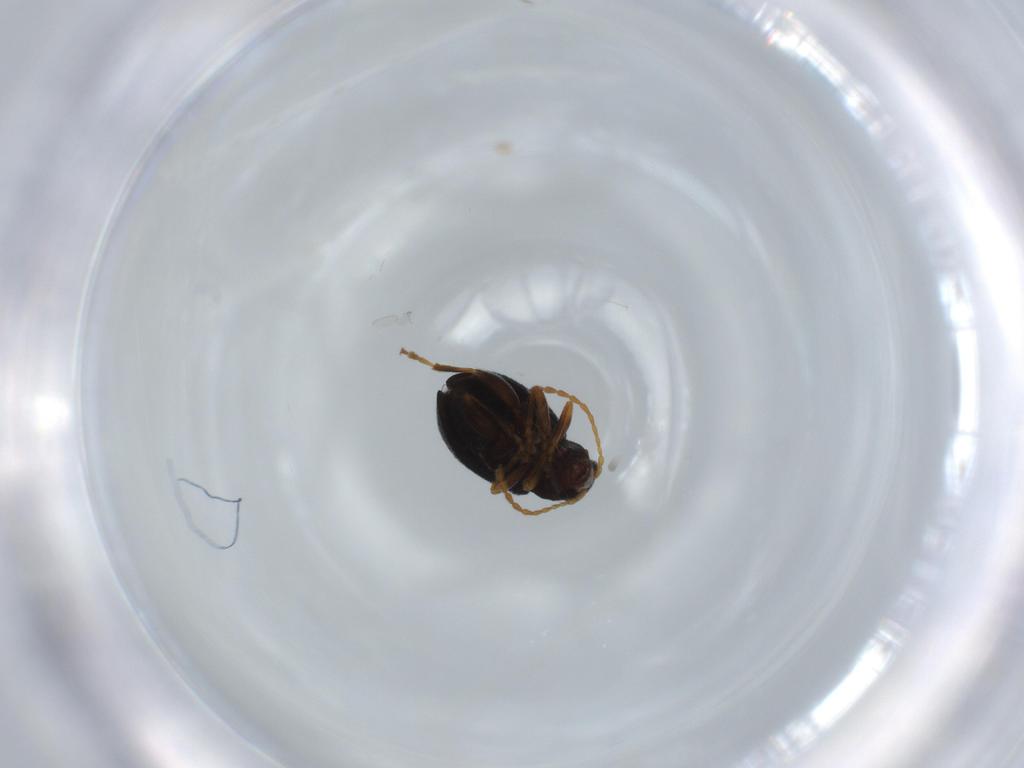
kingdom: Animalia
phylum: Arthropoda
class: Insecta
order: Coleoptera
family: Chrysomelidae
